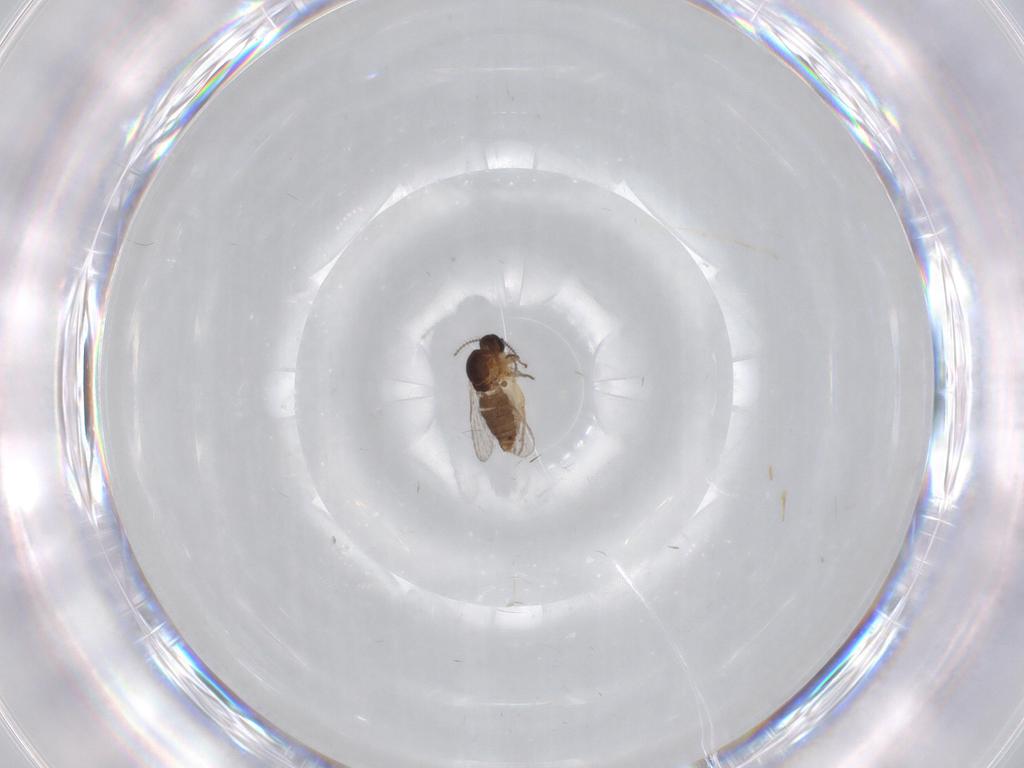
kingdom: Animalia
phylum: Arthropoda
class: Insecta
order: Diptera
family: Ceratopogonidae
